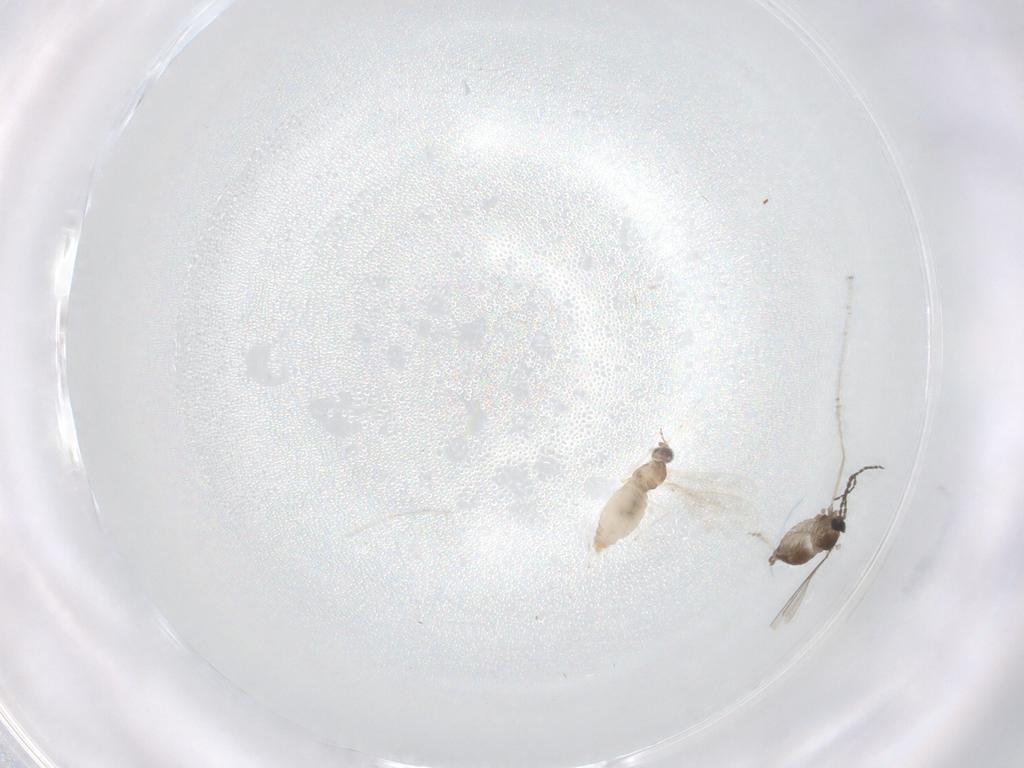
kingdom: Animalia
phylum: Arthropoda
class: Insecta
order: Diptera
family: Cecidomyiidae
